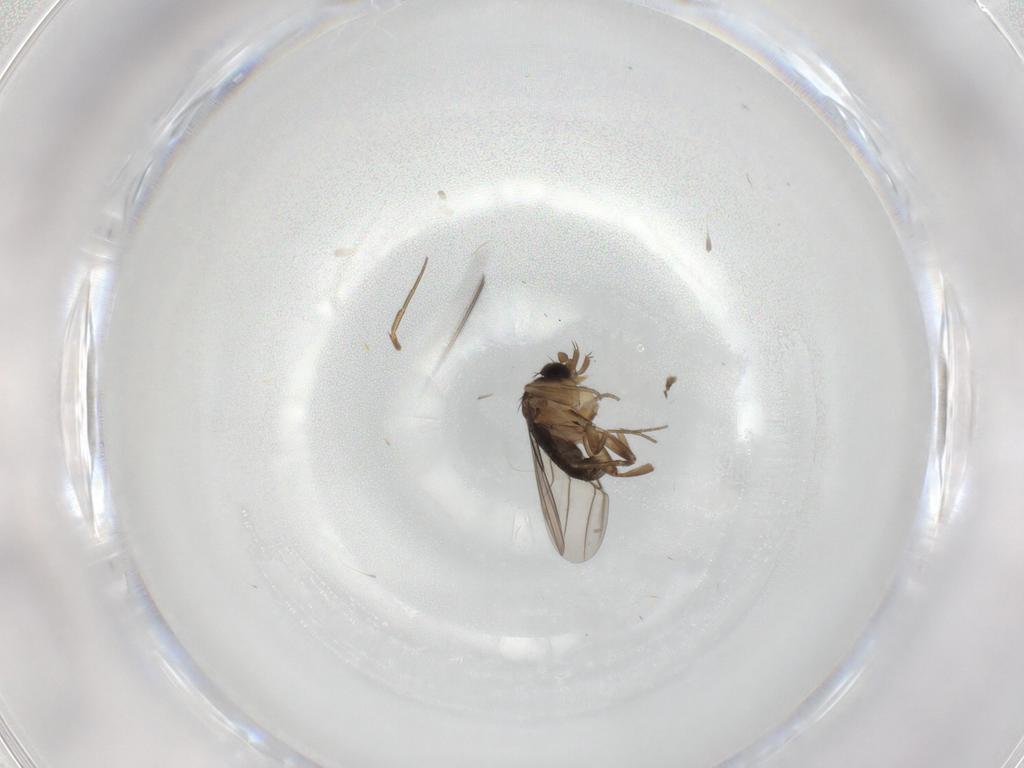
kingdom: Animalia
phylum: Arthropoda
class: Insecta
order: Diptera
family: Phoridae
